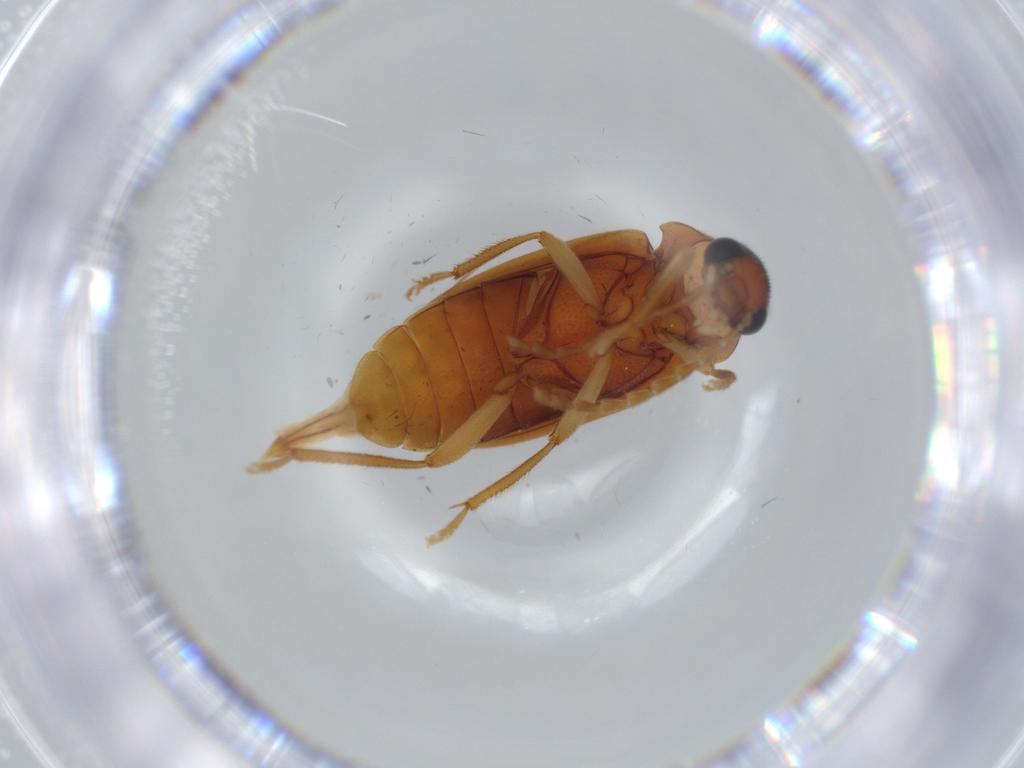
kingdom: Animalia
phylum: Arthropoda
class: Insecta
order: Coleoptera
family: Ptilodactylidae
